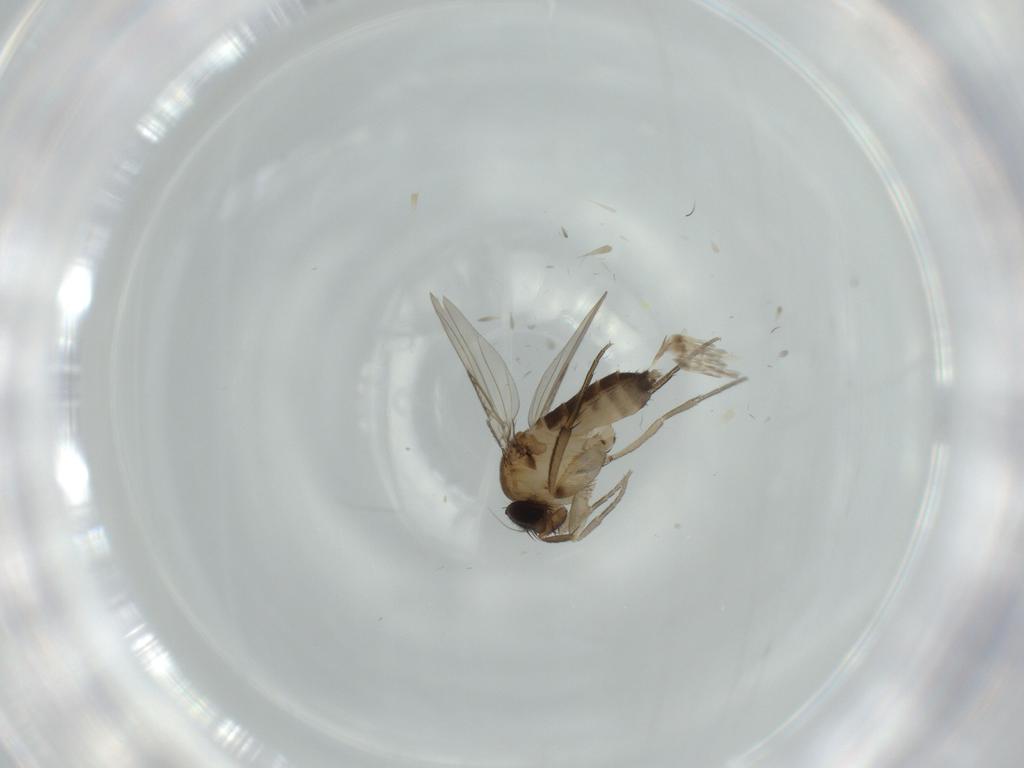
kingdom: Animalia
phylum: Arthropoda
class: Insecta
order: Diptera
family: Phoridae
